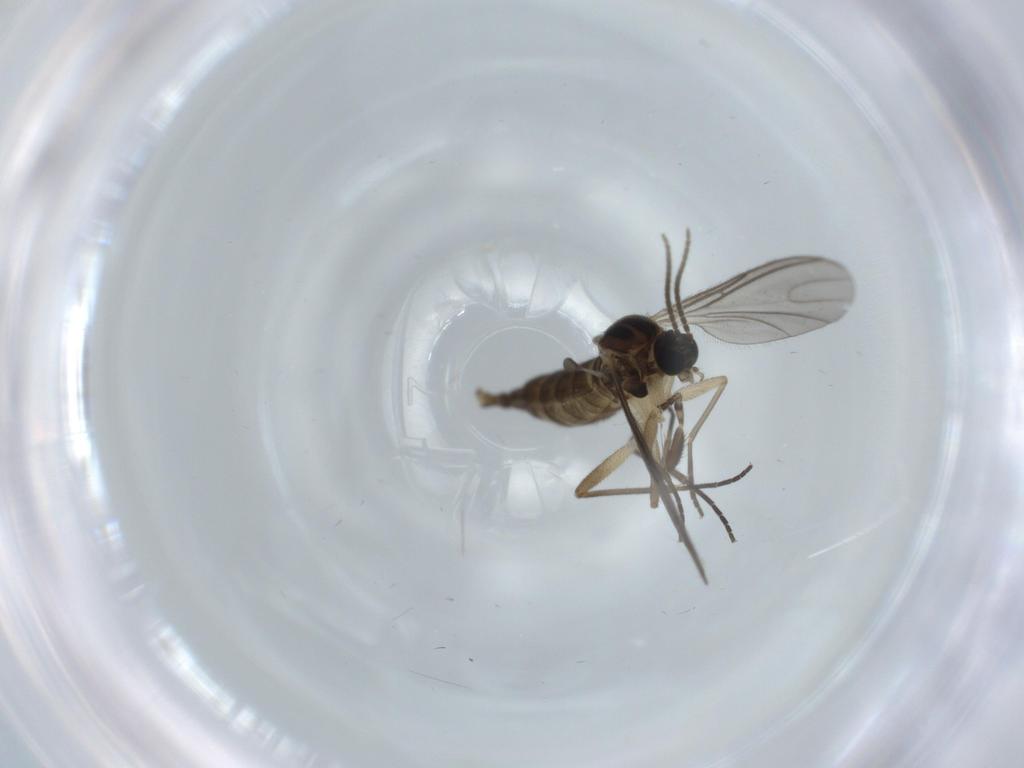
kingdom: Animalia
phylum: Arthropoda
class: Insecta
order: Diptera
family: Sciaridae
